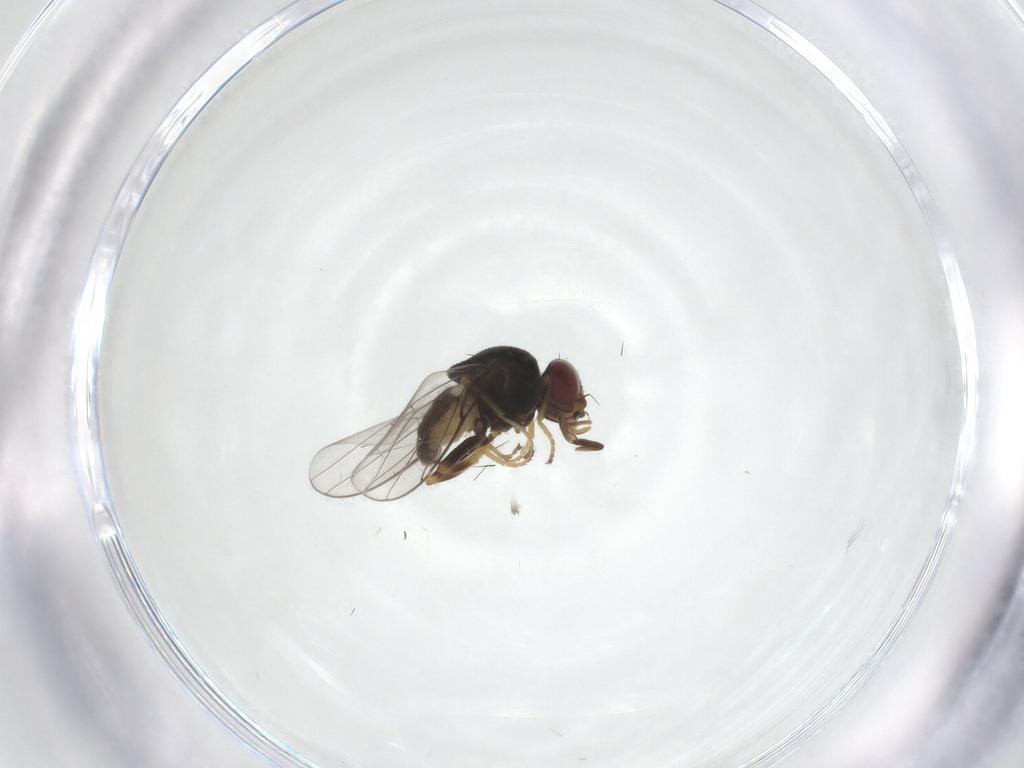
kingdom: Animalia
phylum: Arthropoda
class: Insecta
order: Diptera
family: Chloropidae
